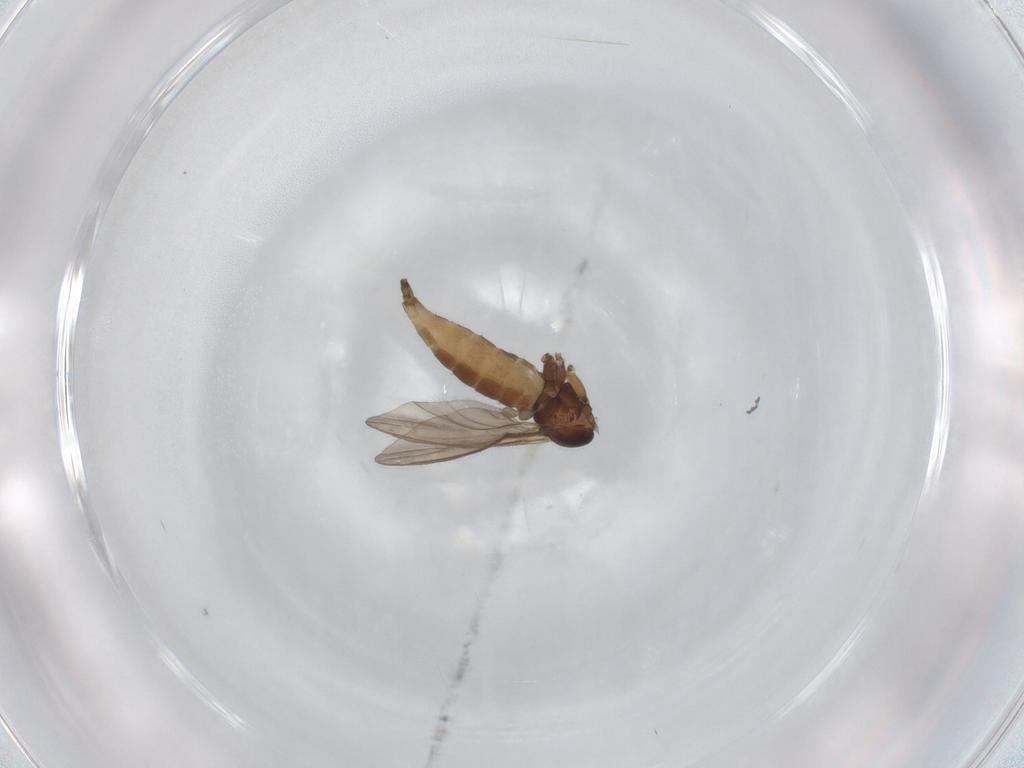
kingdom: Animalia
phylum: Arthropoda
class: Insecta
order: Diptera
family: Sciaridae
